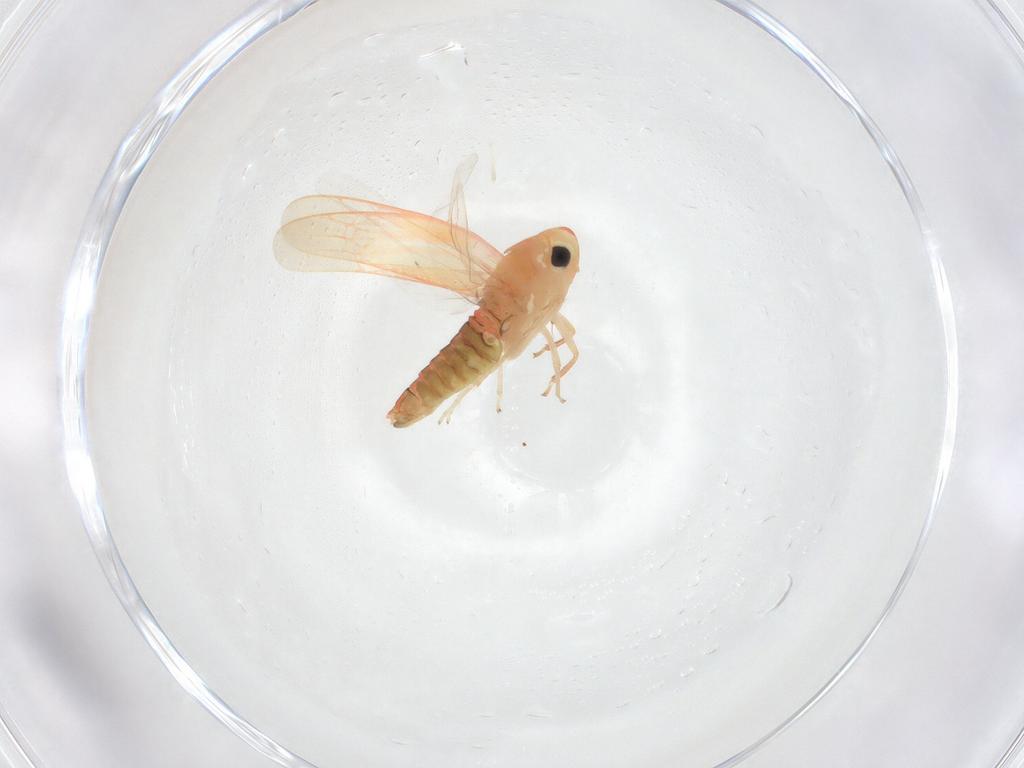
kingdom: Animalia
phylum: Arthropoda
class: Insecta
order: Hemiptera
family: Cicadellidae
